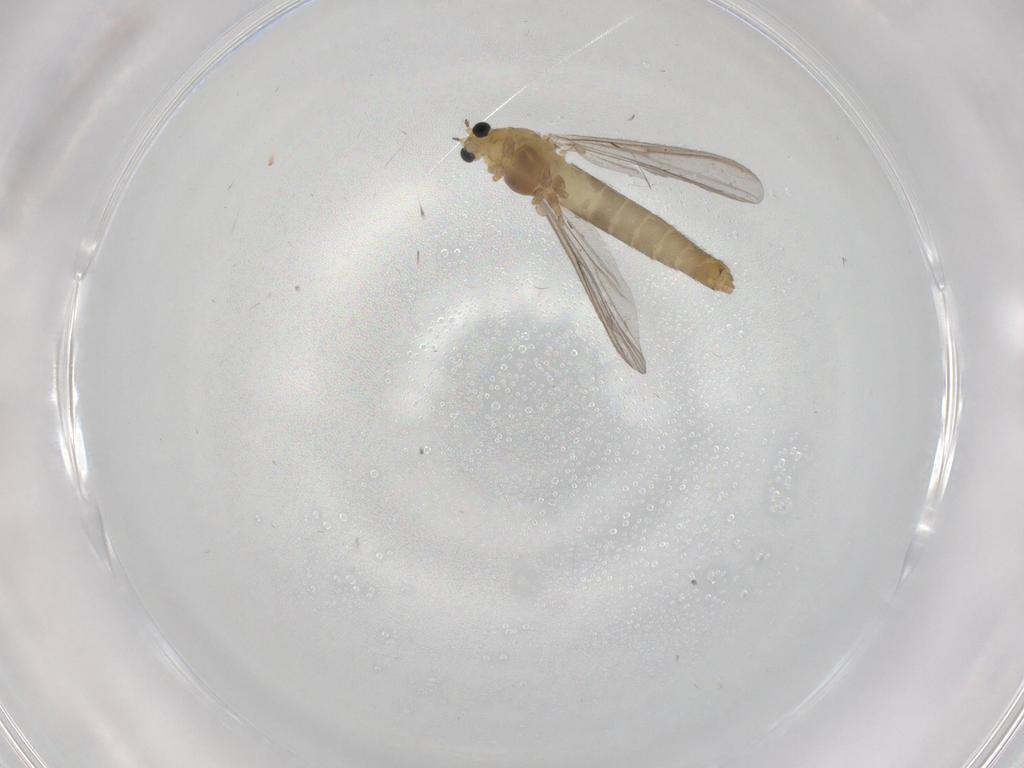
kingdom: Animalia
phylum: Arthropoda
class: Insecta
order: Diptera
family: Chironomidae
